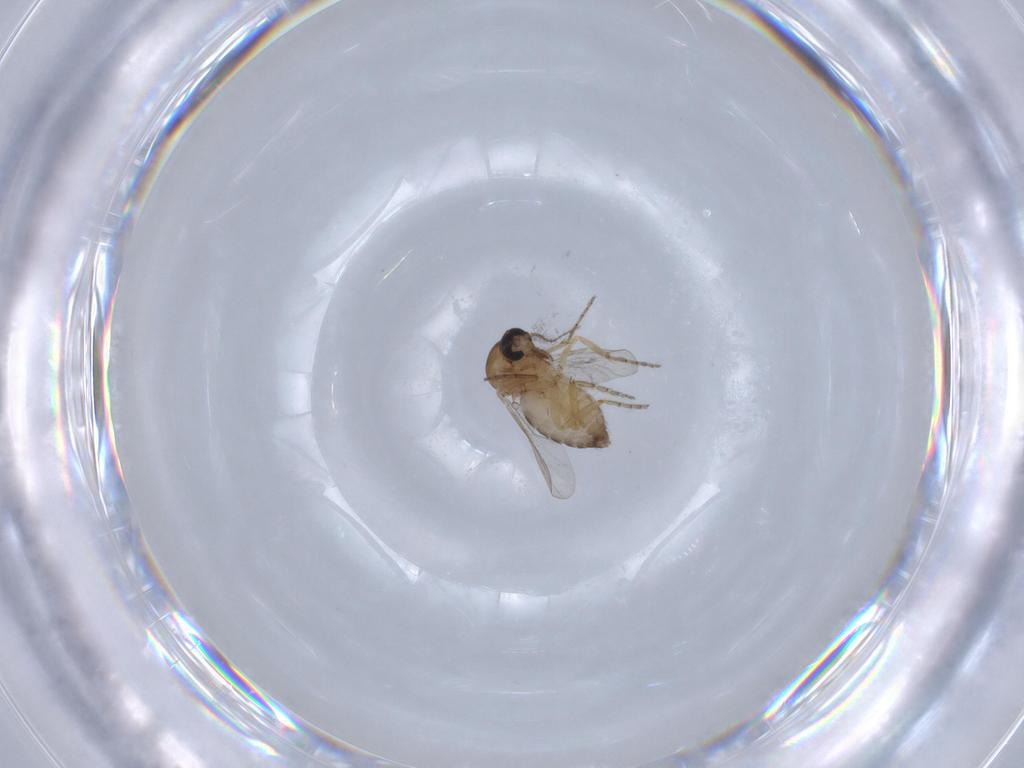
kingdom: Animalia
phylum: Arthropoda
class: Insecta
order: Diptera
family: Ceratopogonidae
